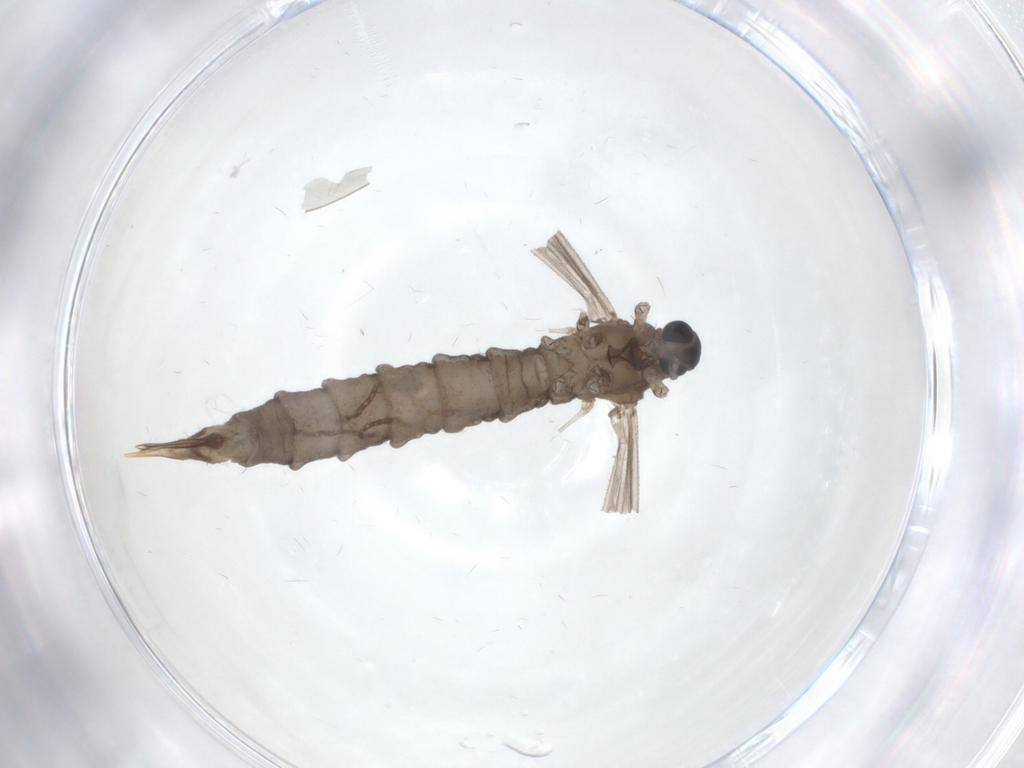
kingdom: Animalia
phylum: Arthropoda
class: Insecta
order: Diptera
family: Limoniidae
